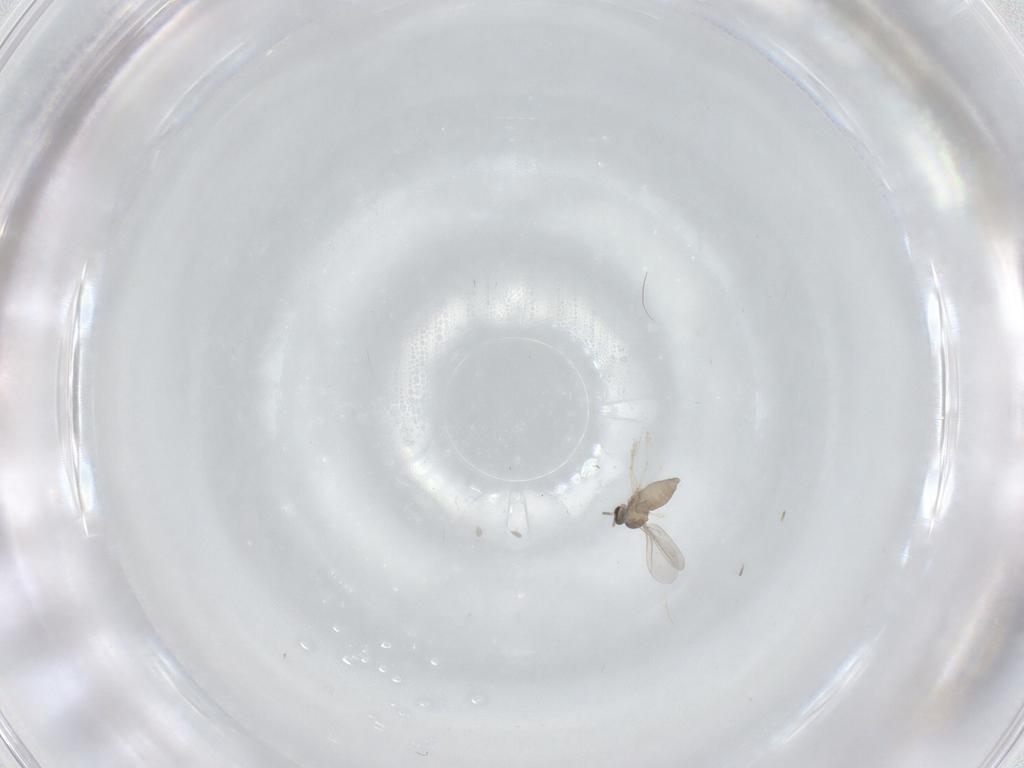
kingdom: Animalia
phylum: Arthropoda
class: Insecta
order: Diptera
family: Cecidomyiidae
